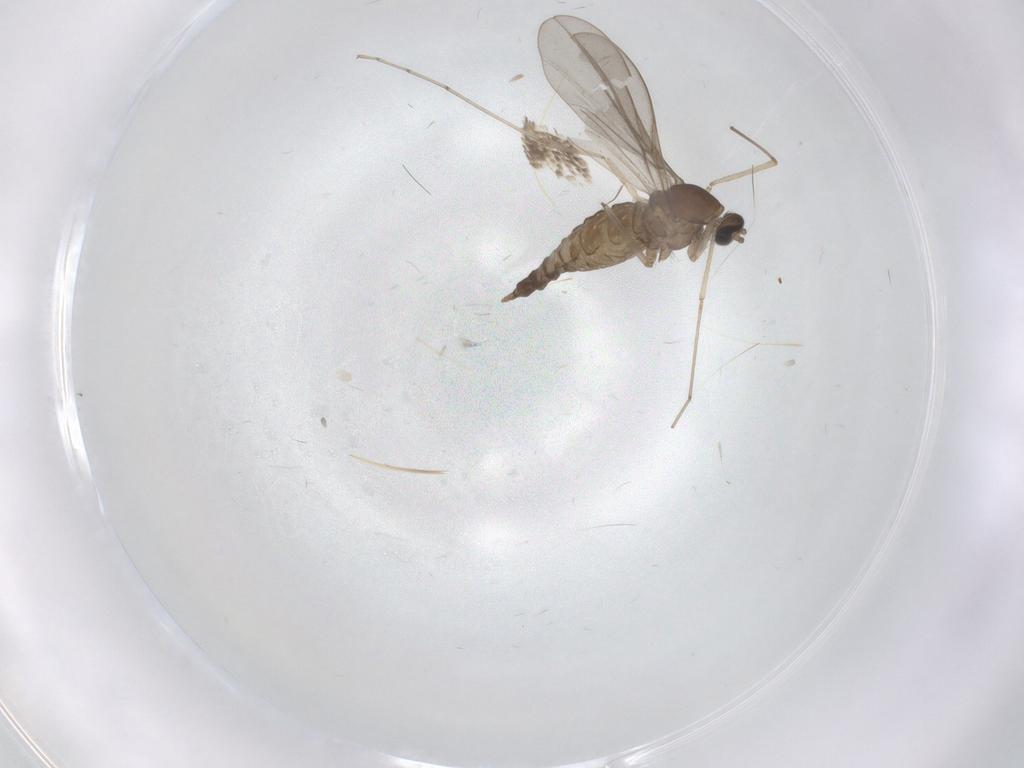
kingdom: Animalia
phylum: Arthropoda
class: Insecta
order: Diptera
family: Cecidomyiidae
